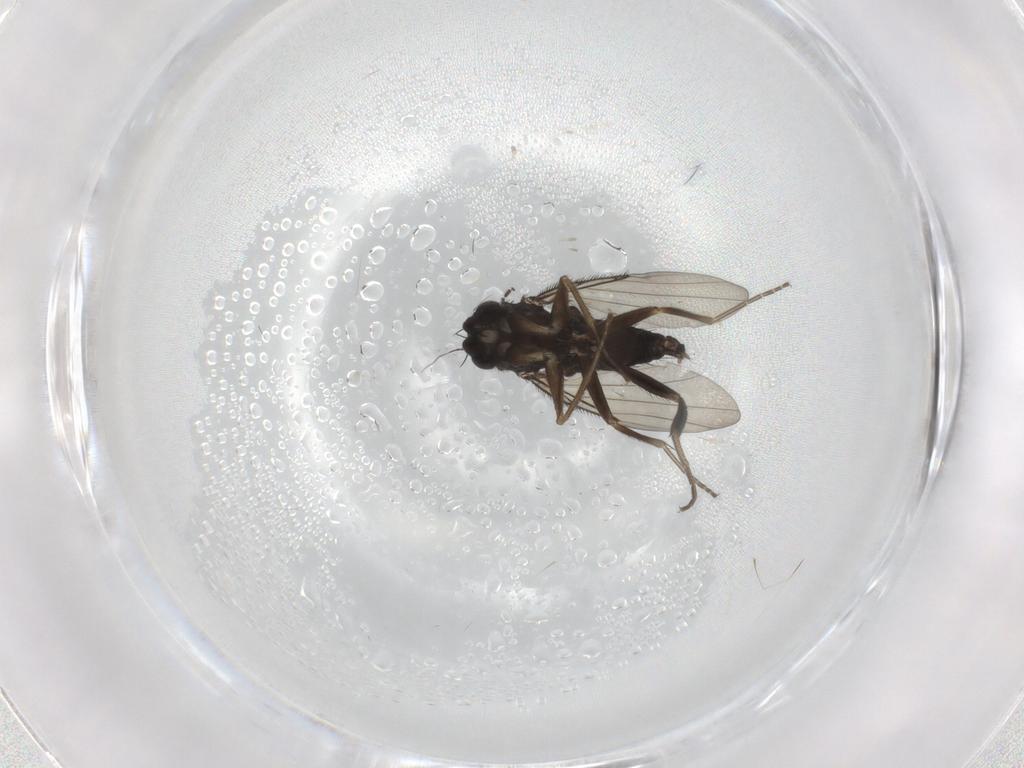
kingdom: Animalia
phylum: Arthropoda
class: Insecta
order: Diptera
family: Phoridae
